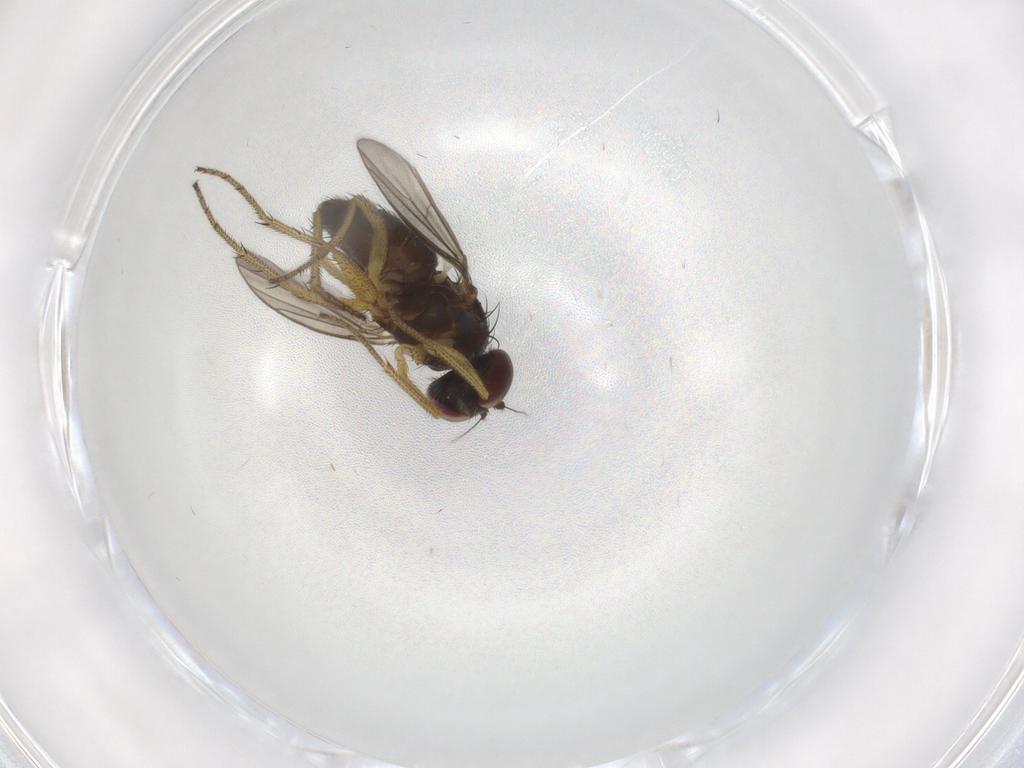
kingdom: Animalia
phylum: Arthropoda
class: Insecta
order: Diptera
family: Dolichopodidae
